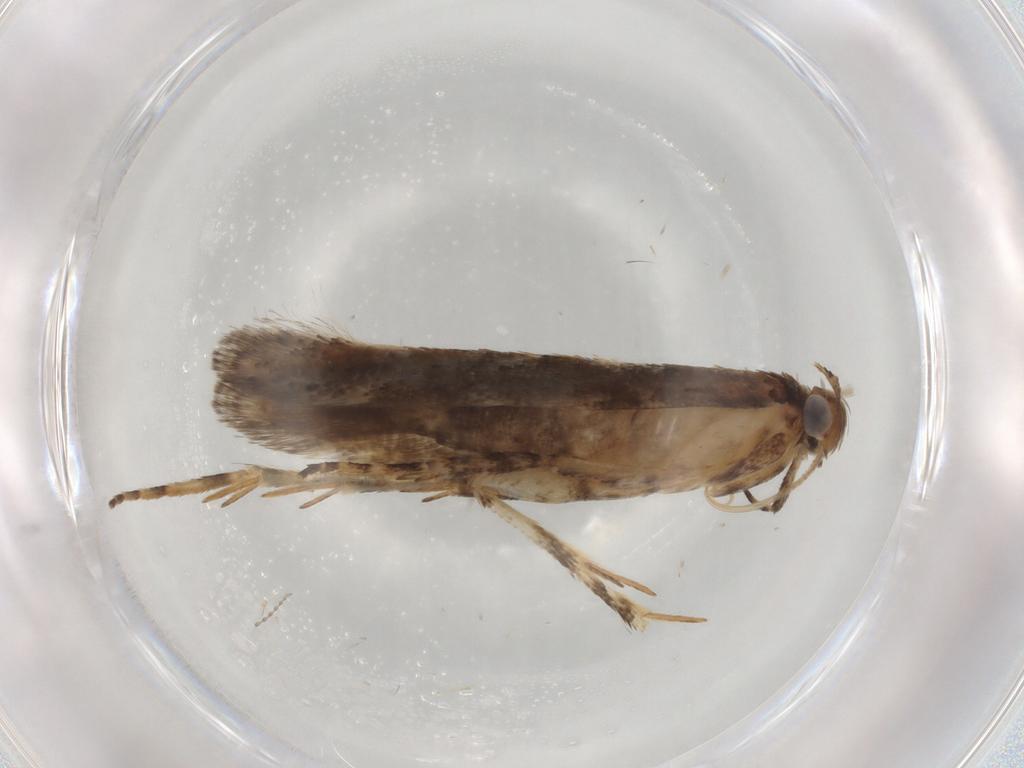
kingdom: Animalia
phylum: Arthropoda
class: Insecta
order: Lepidoptera
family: Gelechiidae
